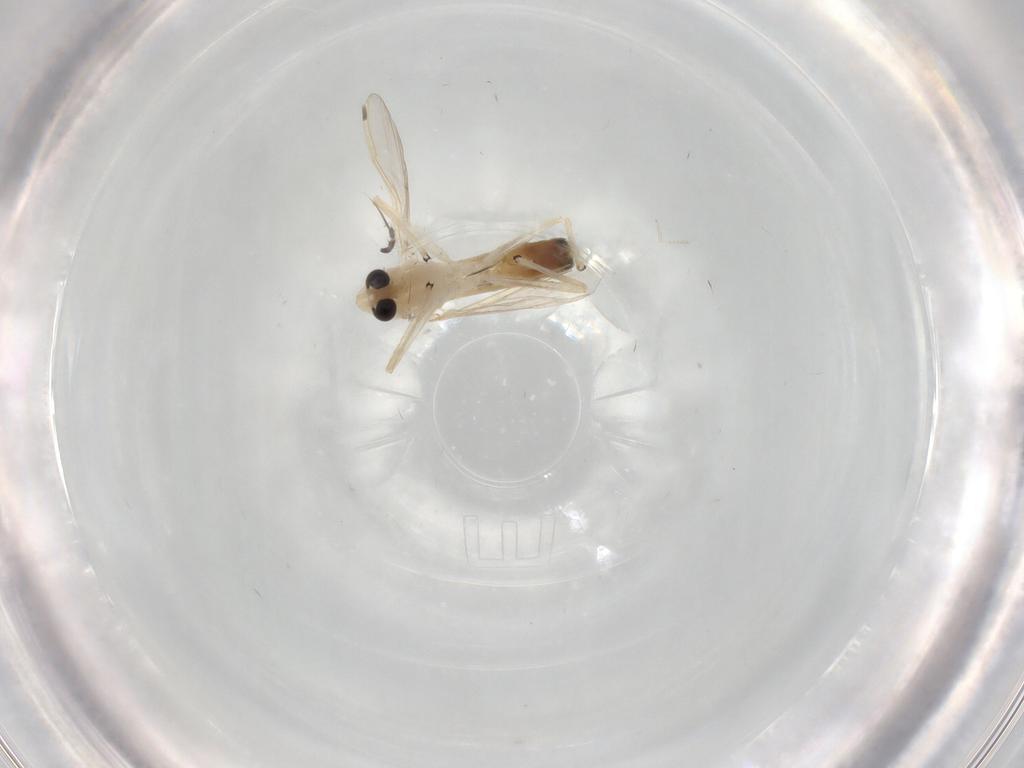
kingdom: Animalia
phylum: Arthropoda
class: Insecta
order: Diptera
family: Chironomidae
